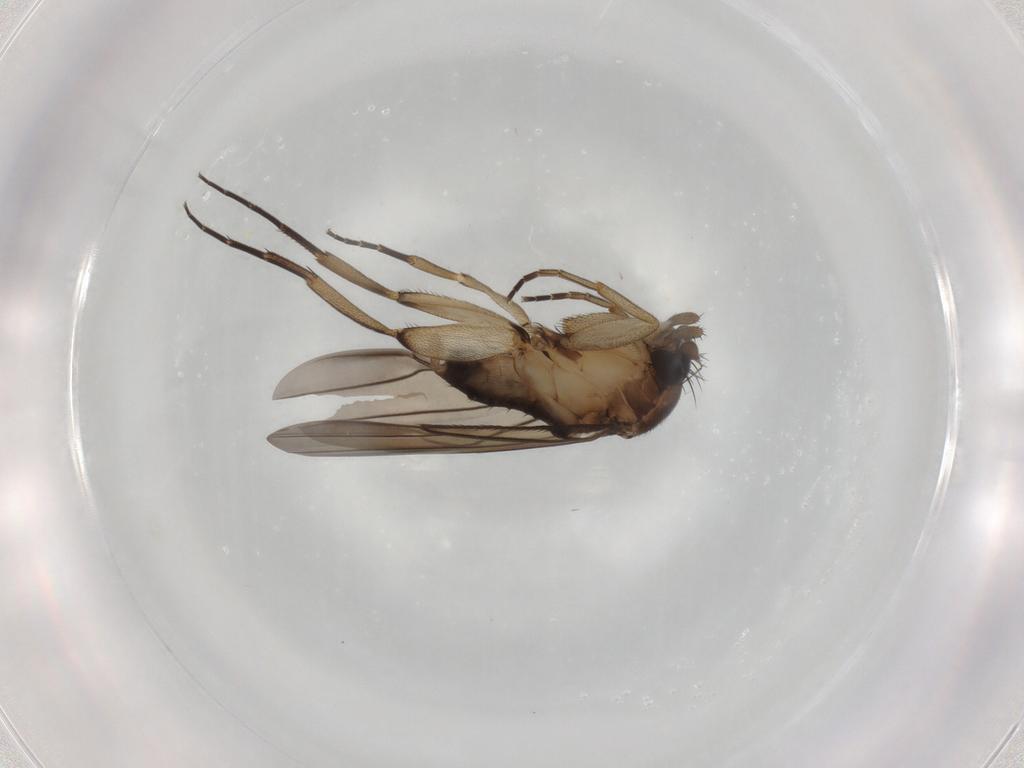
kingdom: Animalia
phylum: Arthropoda
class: Insecta
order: Diptera
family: Phoridae
